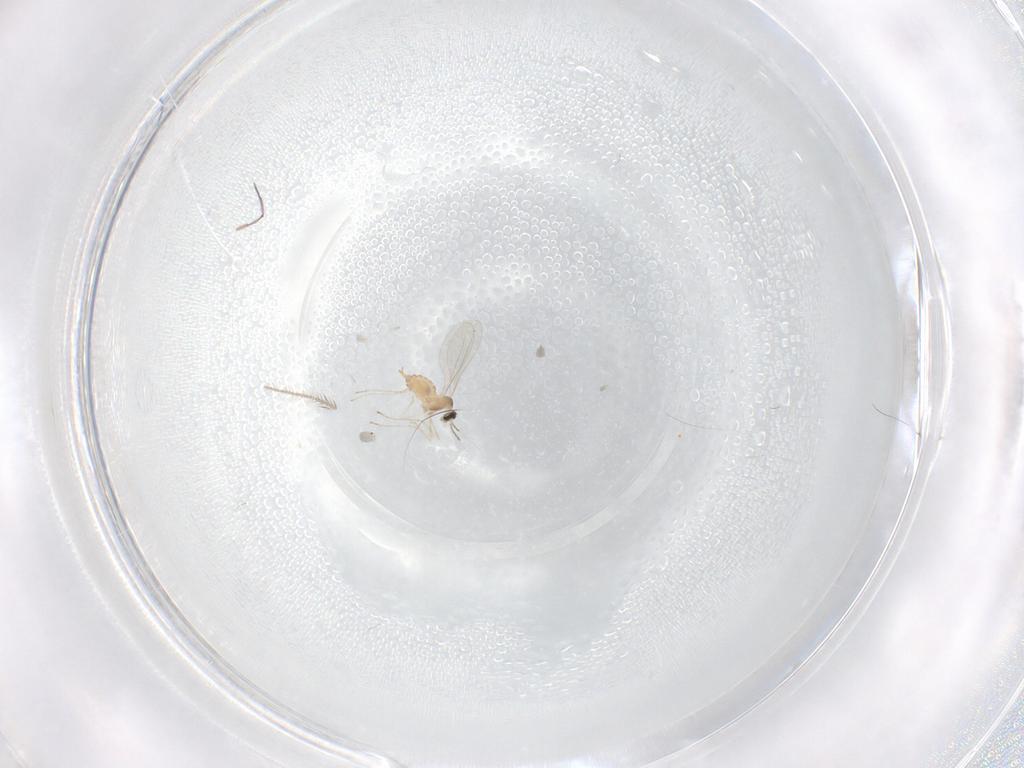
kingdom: Animalia
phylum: Arthropoda
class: Insecta
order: Diptera
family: Cecidomyiidae
